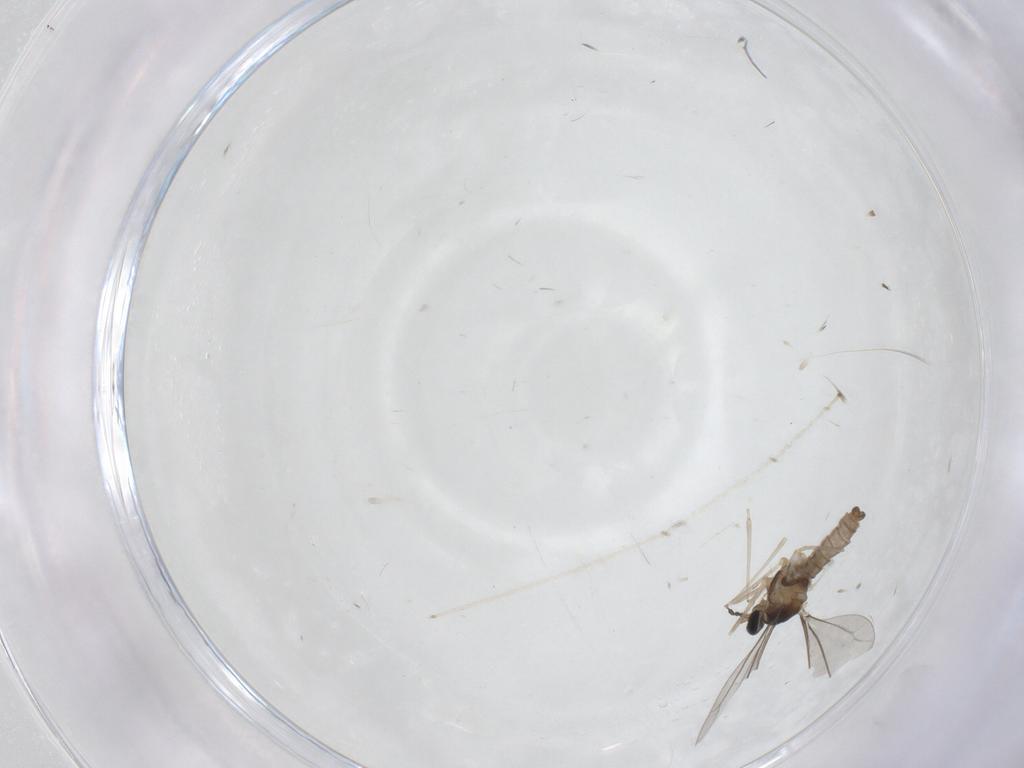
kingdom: Animalia
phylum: Arthropoda
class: Insecta
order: Diptera
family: Cecidomyiidae
